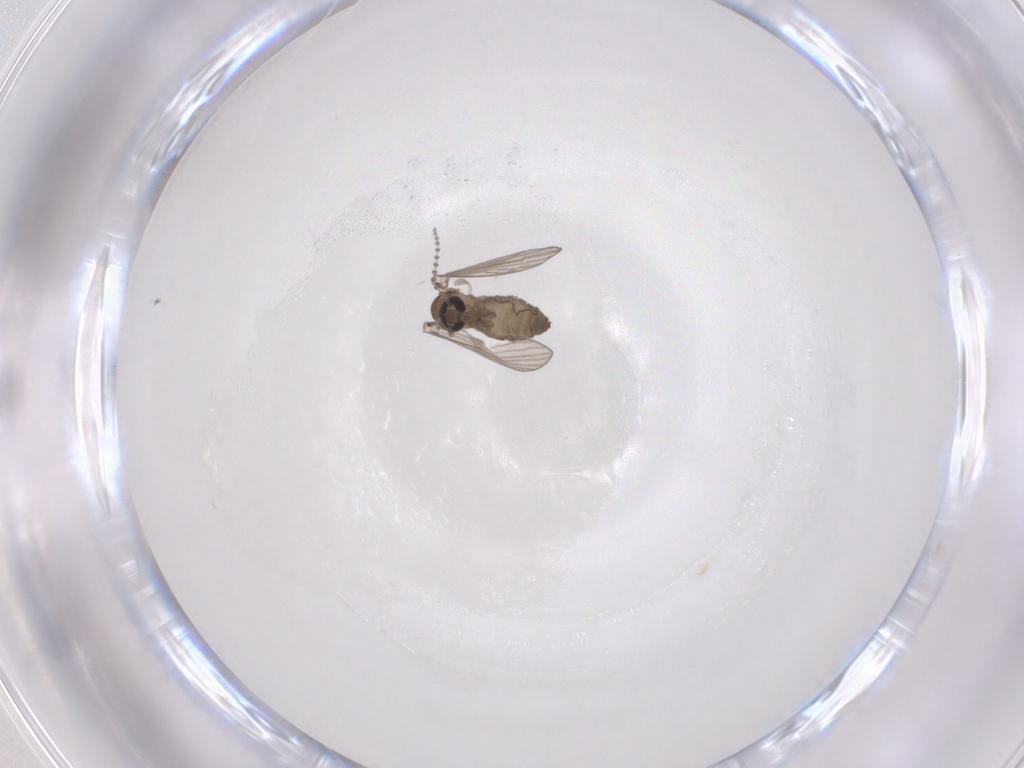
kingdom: Animalia
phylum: Arthropoda
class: Insecta
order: Diptera
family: Psychodidae
